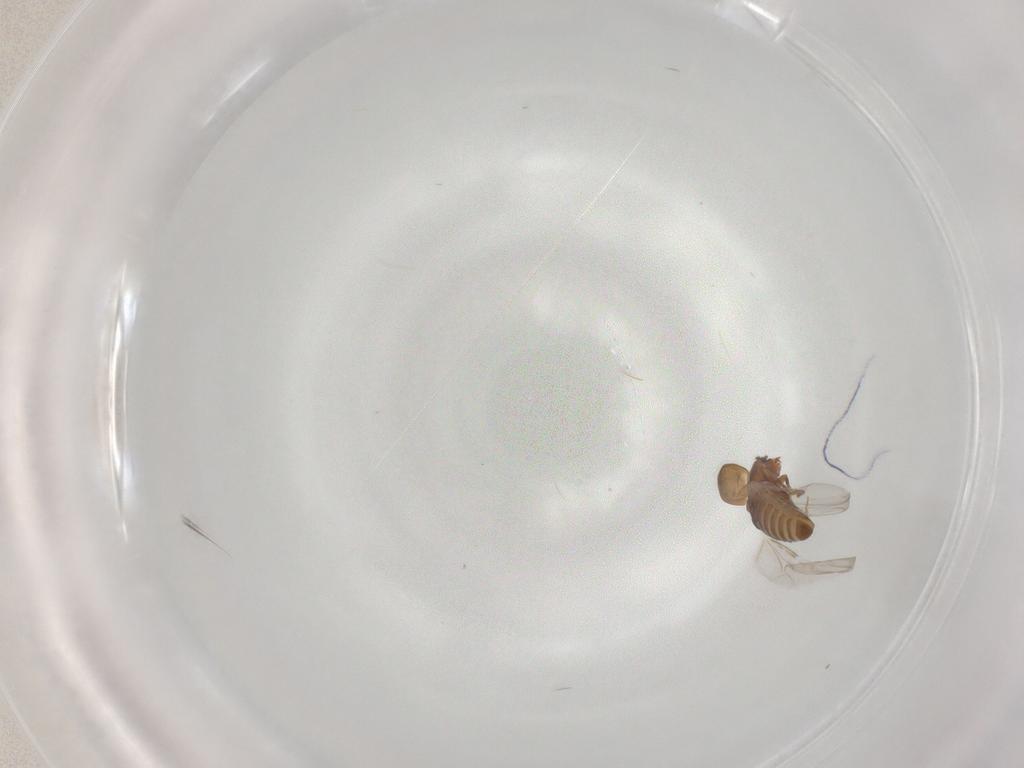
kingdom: Animalia
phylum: Arthropoda
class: Insecta
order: Coleoptera
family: Laemophloeidae
